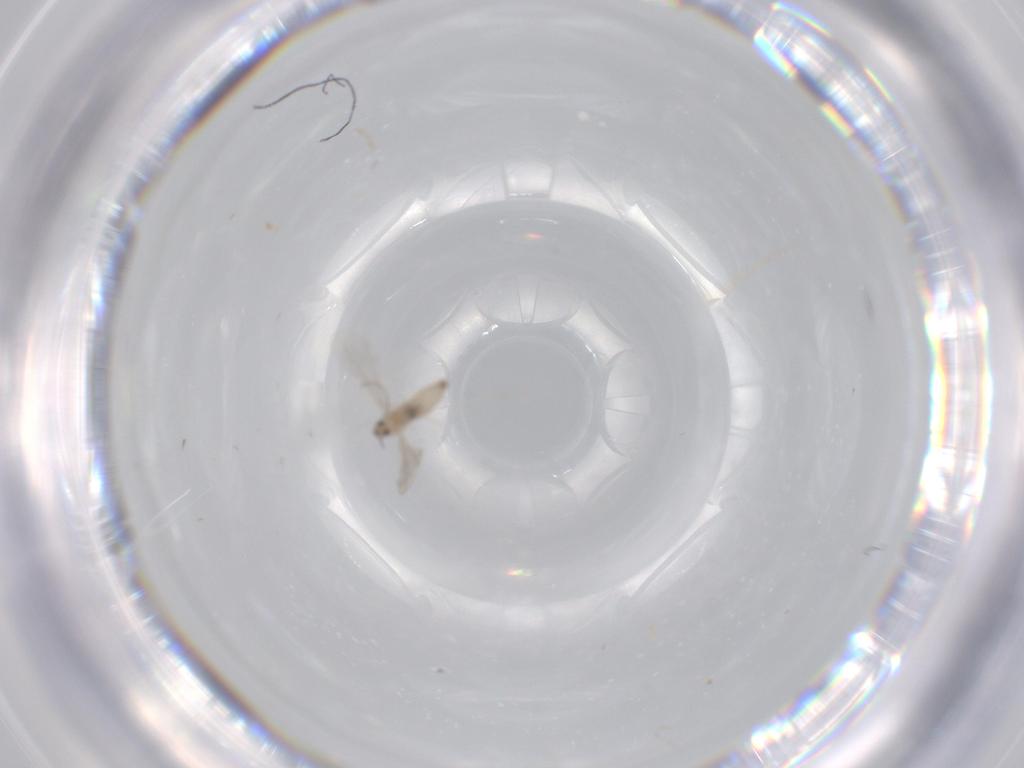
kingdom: Animalia
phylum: Arthropoda
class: Insecta
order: Diptera
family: Cecidomyiidae
